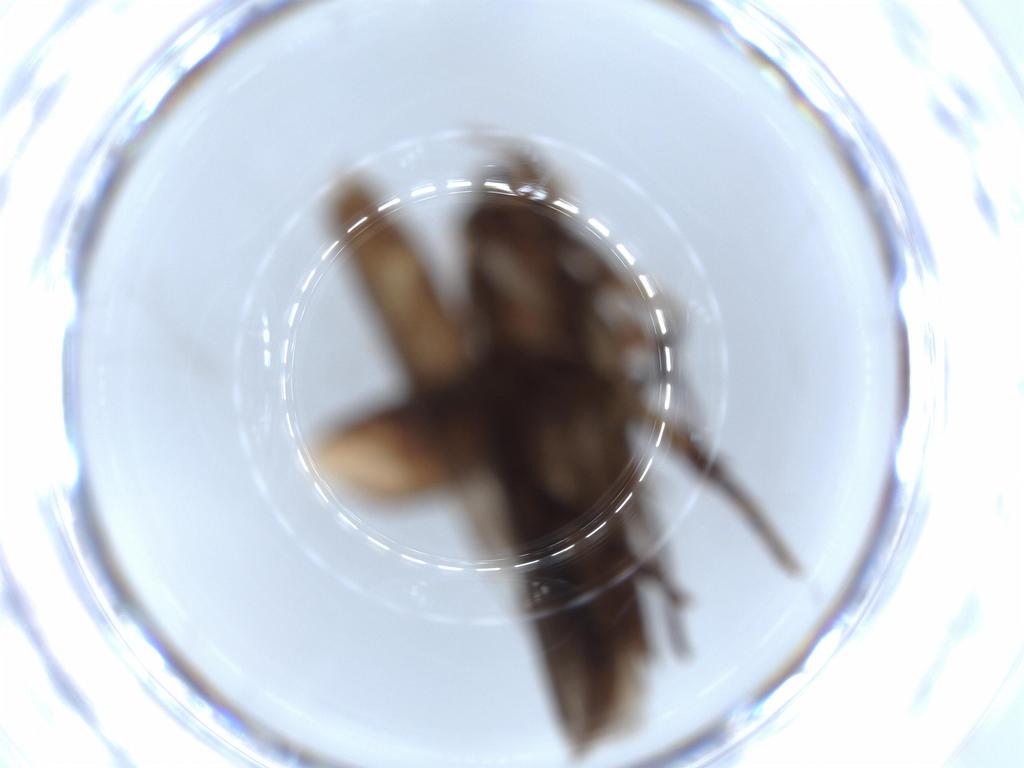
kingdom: Animalia
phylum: Arthropoda
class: Insecta
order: Lepidoptera
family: Autostichidae
